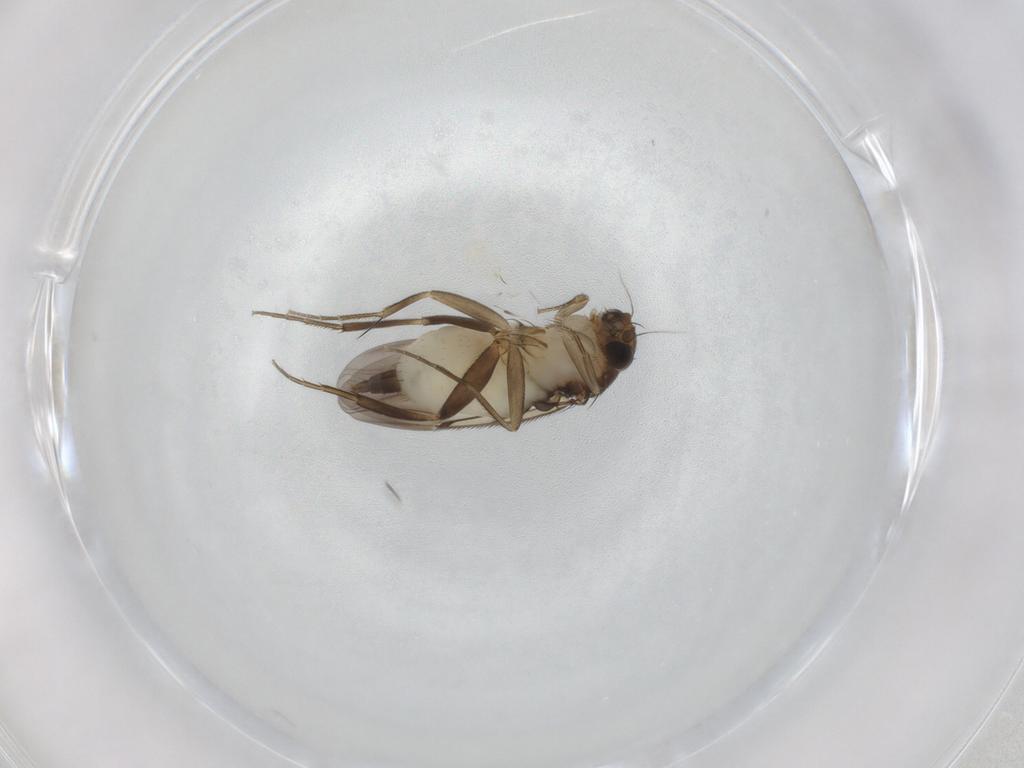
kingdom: Animalia
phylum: Arthropoda
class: Insecta
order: Diptera
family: Phoridae
